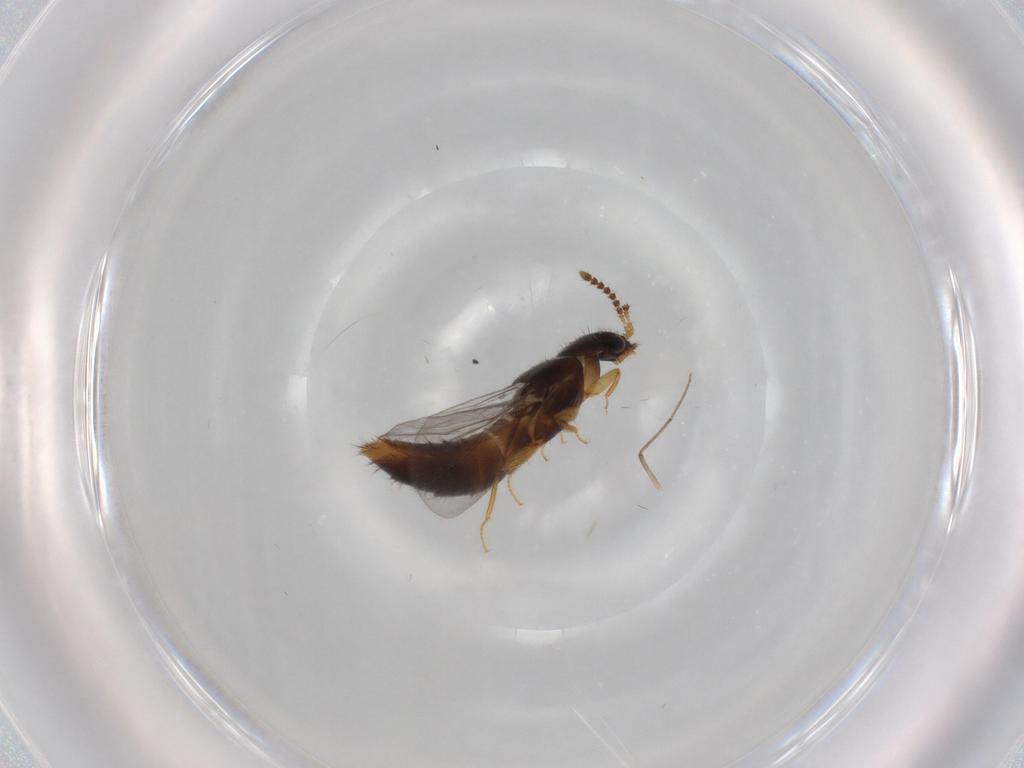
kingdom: Animalia
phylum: Arthropoda
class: Insecta
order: Coleoptera
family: Staphylinidae
